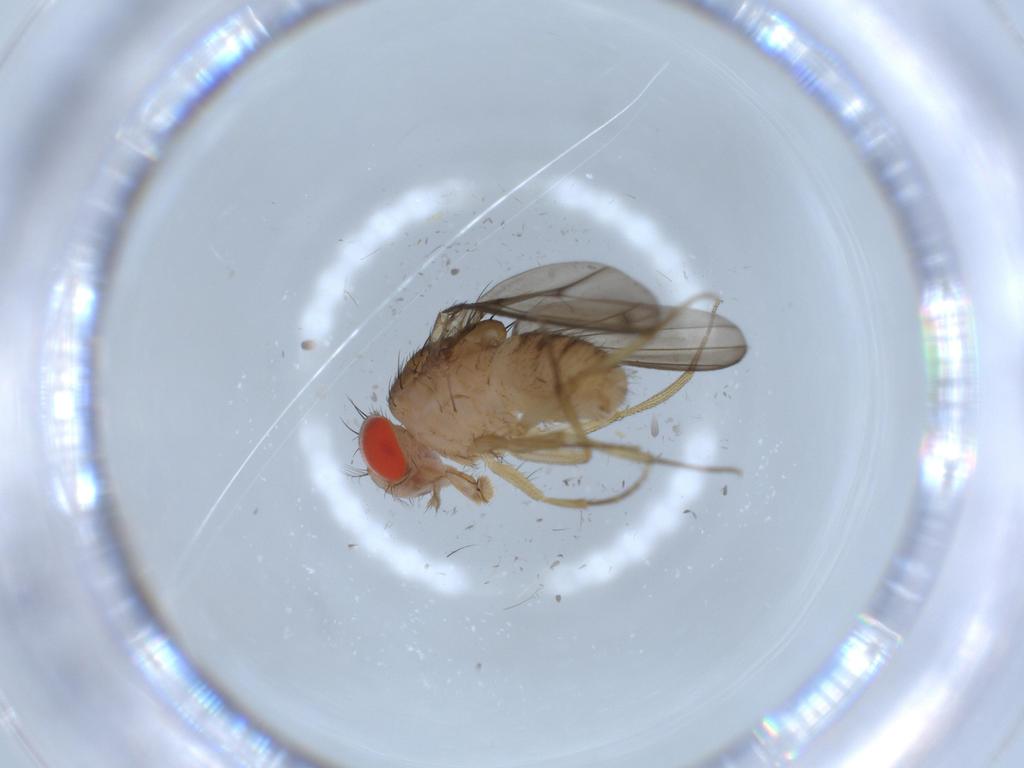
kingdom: Animalia
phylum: Arthropoda
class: Insecta
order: Diptera
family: Drosophilidae
